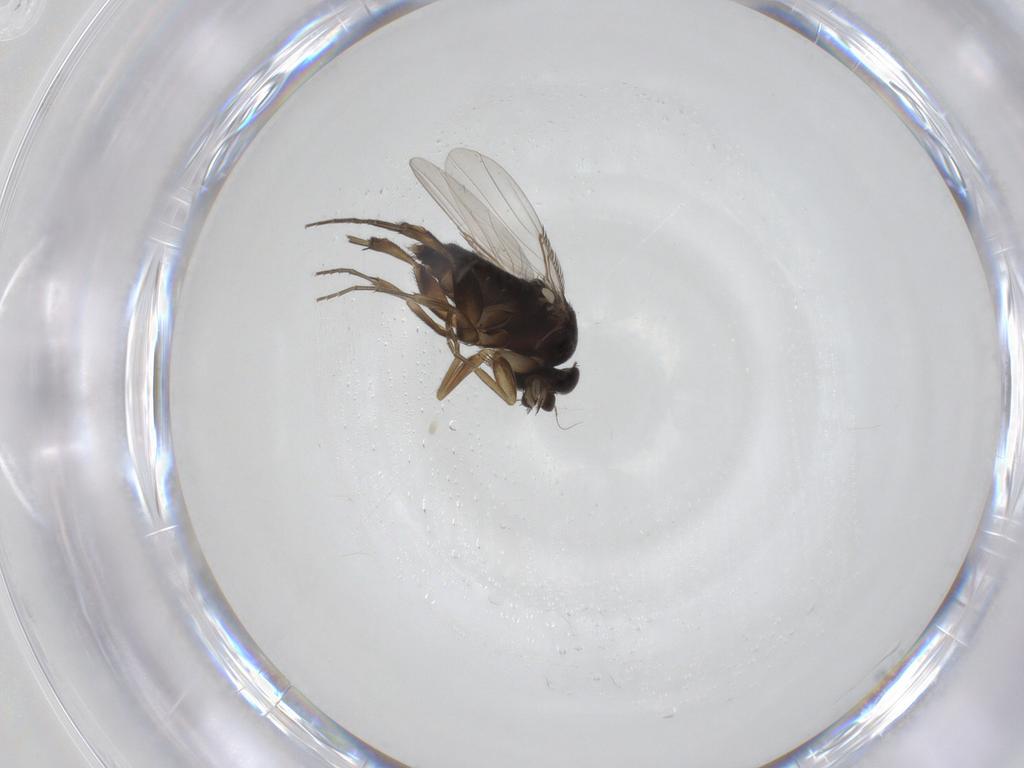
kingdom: Animalia
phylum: Arthropoda
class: Insecta
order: Diptera
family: Phoridae
